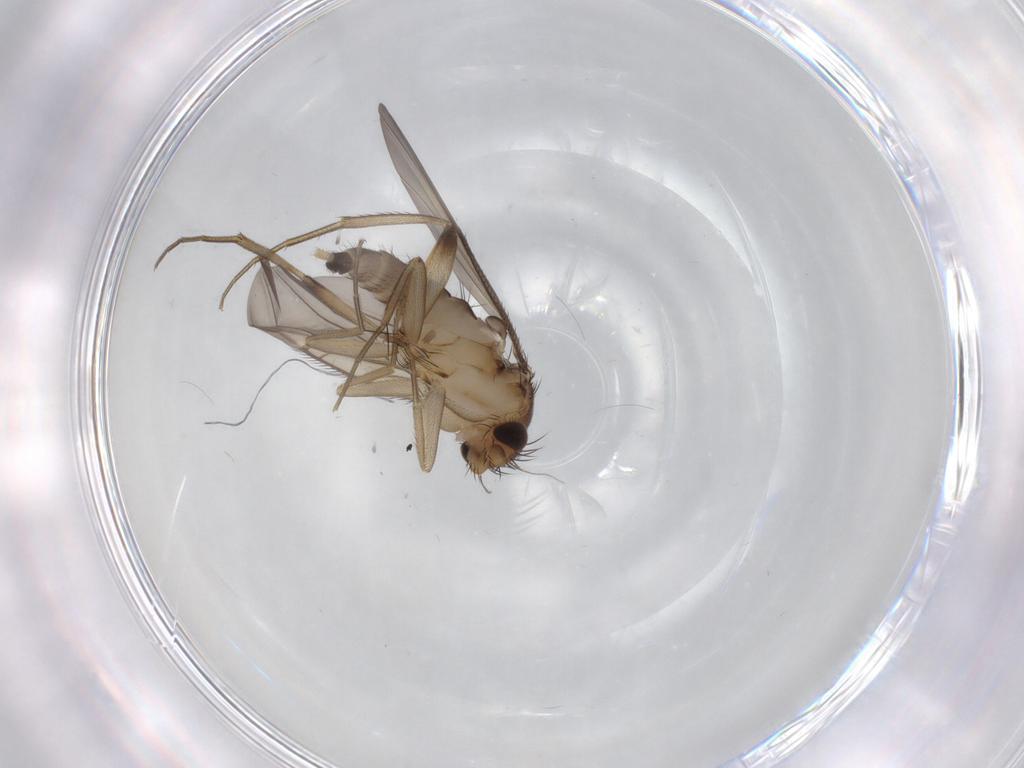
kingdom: Animalia
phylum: Arthropoda
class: Insecta
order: Diptera
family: Phoridae
